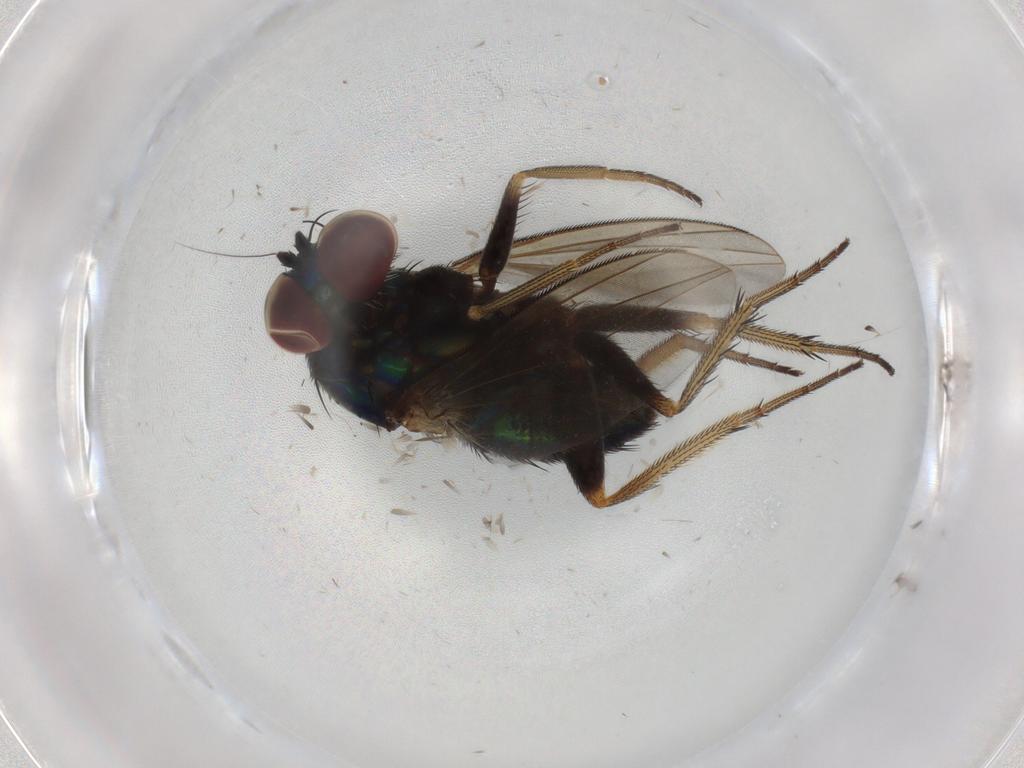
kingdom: Animalia
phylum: Arthropoda
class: Insecta
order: Diptera
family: Dolichopodidae
